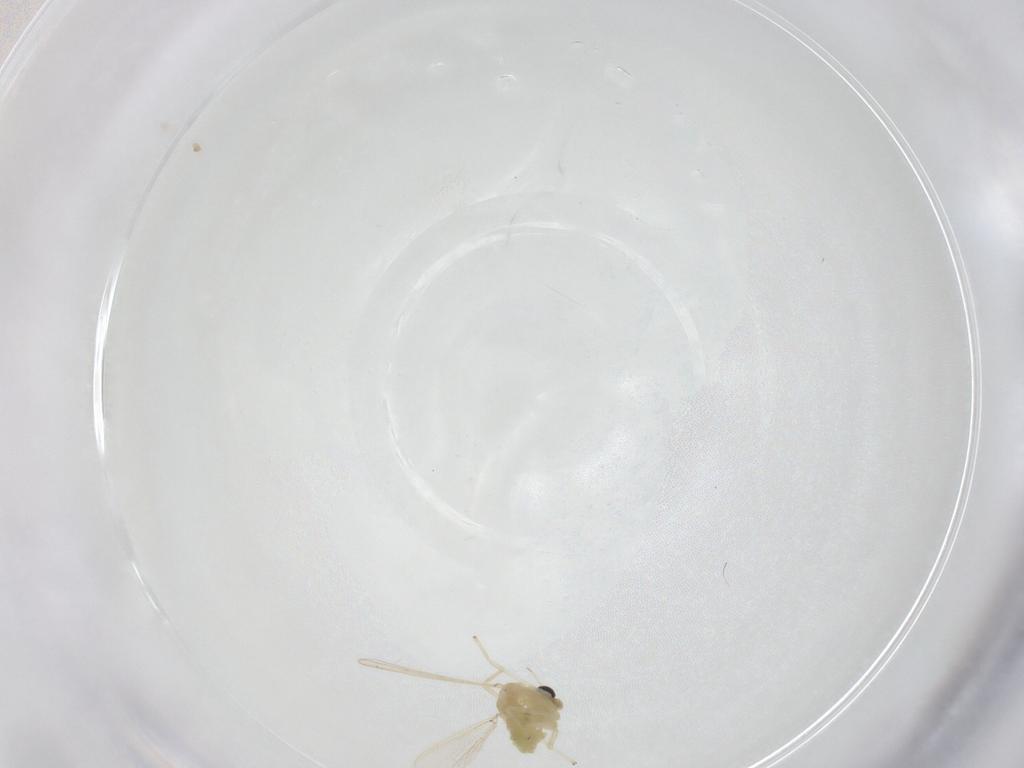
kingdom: Animalia
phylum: Arthropoda
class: Insecta
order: Diptera
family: Chironomidae
